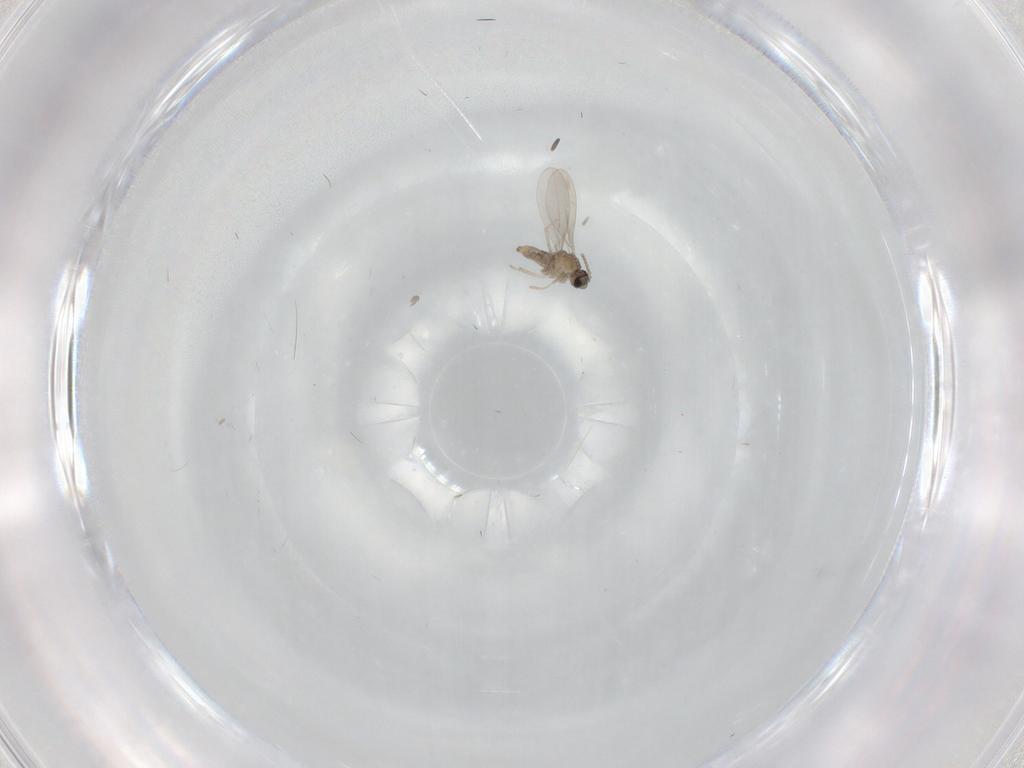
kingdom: Animalia
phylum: Arthropoda
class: Insecta
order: Diptera
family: Cecidomyiidae
